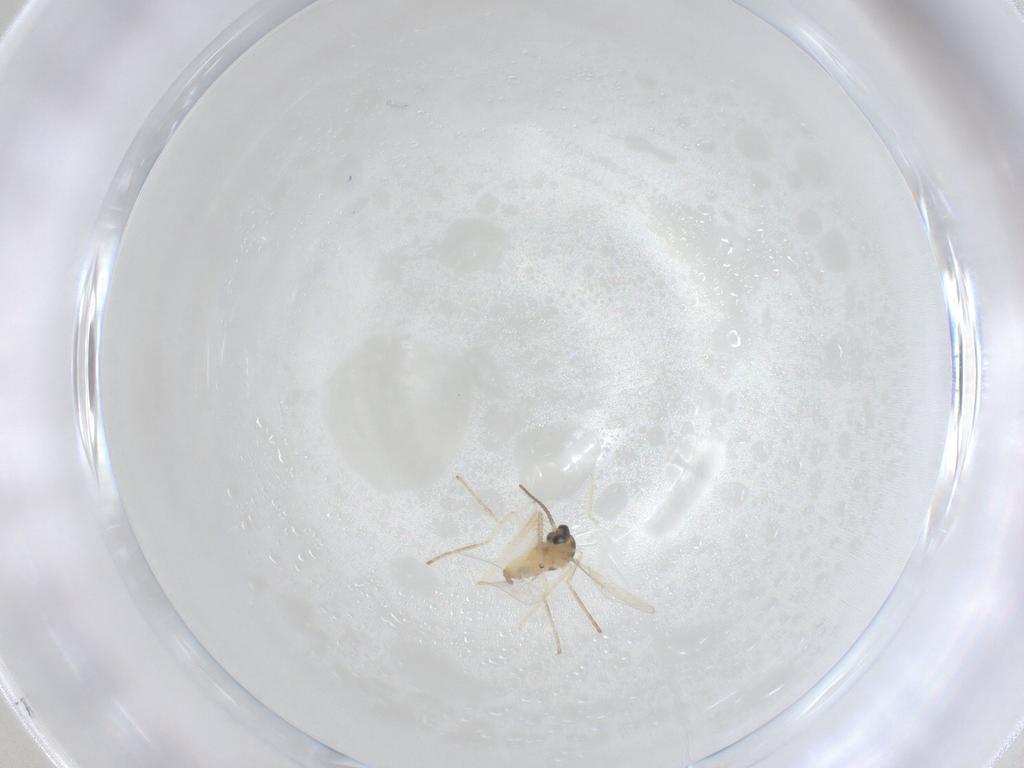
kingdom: Animalia
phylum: Arthropoda
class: Insecta
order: Diptera
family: Cecidomyiidae
